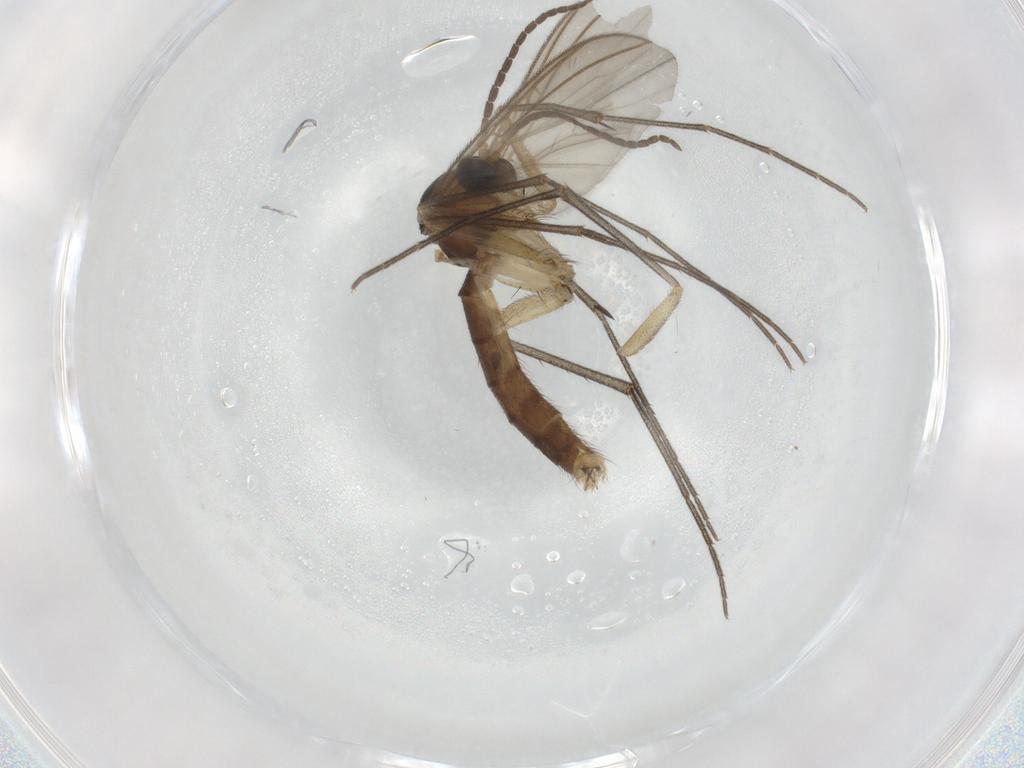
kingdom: Animalia
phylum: Arthropoda
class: Insecta
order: Diptera
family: Mycetophilidae
